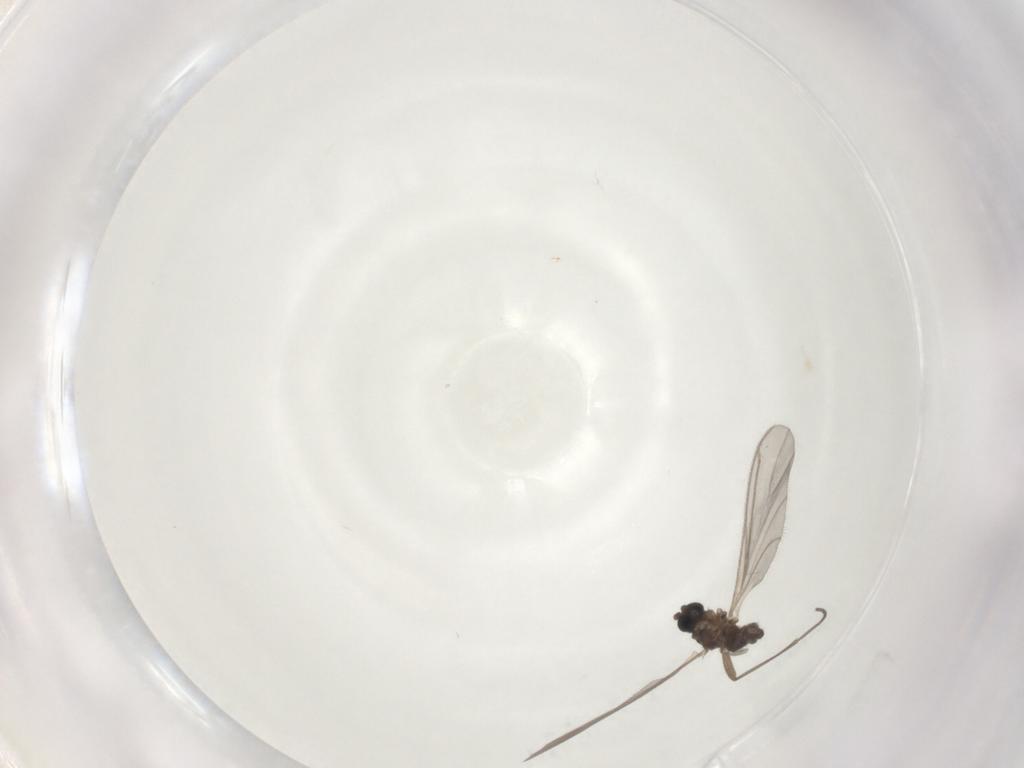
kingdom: Animalia
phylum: Arthropoda
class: Insecta
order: Diptera
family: Sciaridae
